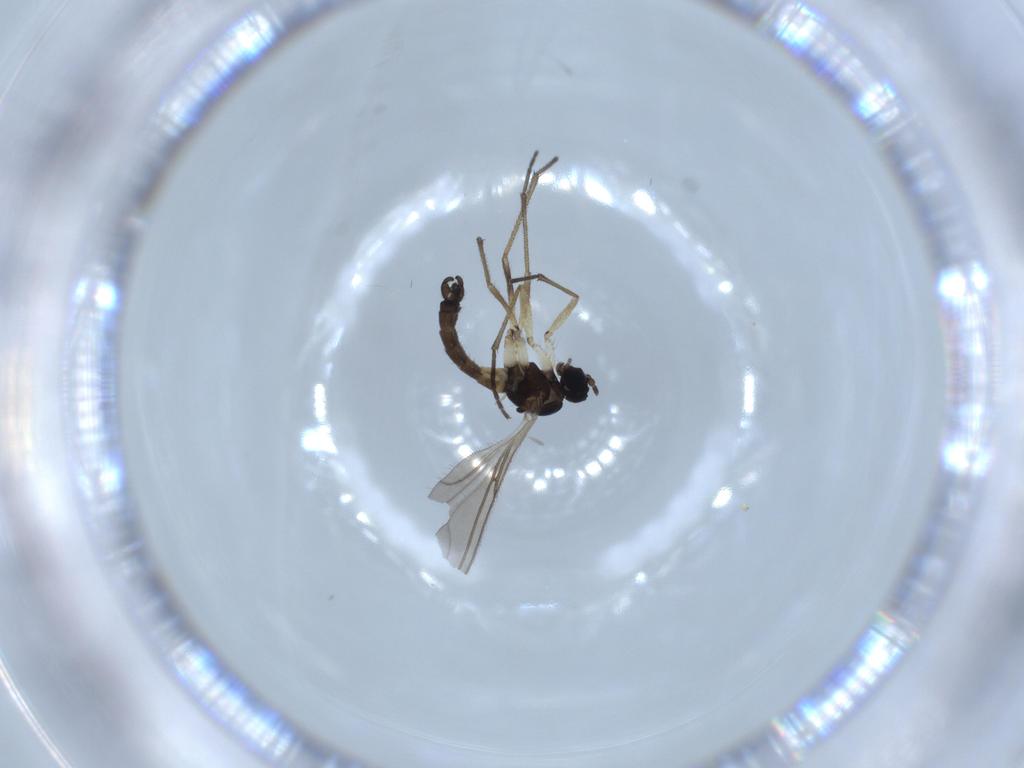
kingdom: Animalia
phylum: Arthropoda
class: Insecta
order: Diptera
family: Sciaridae
